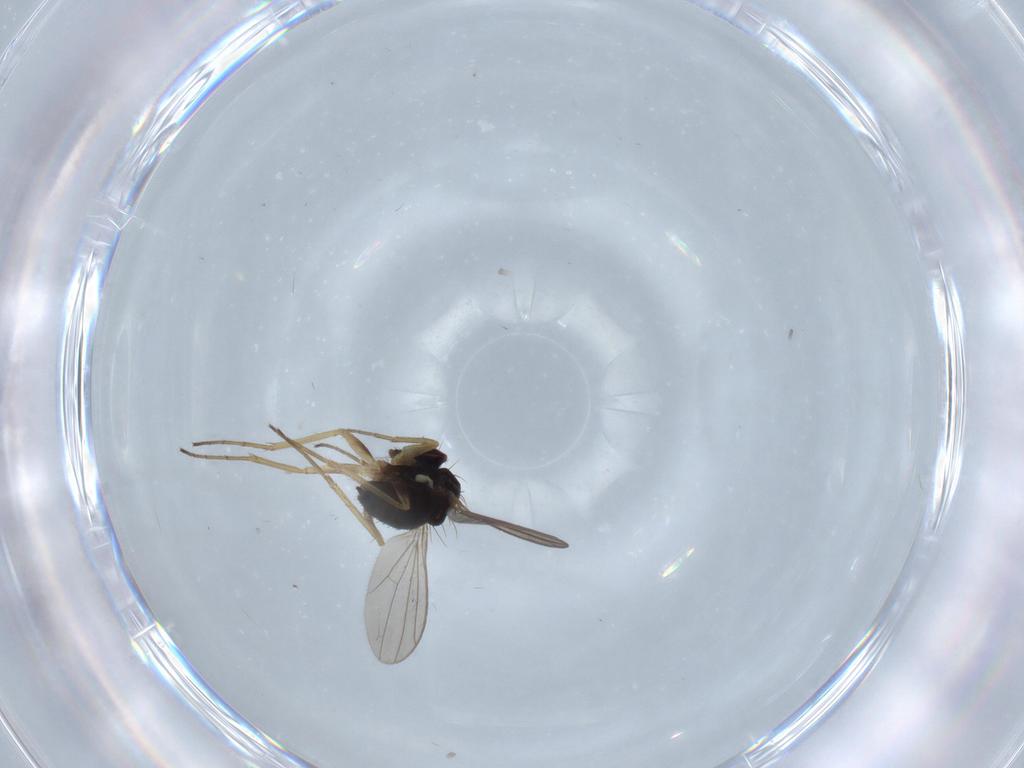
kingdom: Animalia
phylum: Arthropoda
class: Insecta
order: Diptera
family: Dolichopodidae
